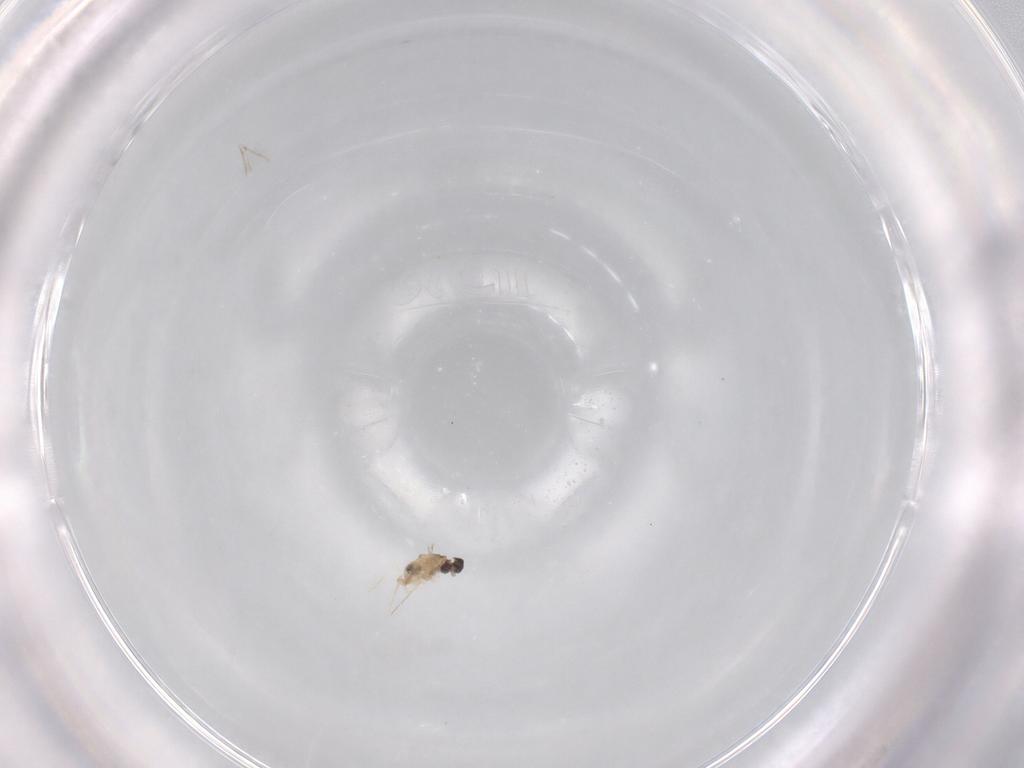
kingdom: Animalia
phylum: Arthropoda
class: Insecta
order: Diptera
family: Cecidomyiidae
